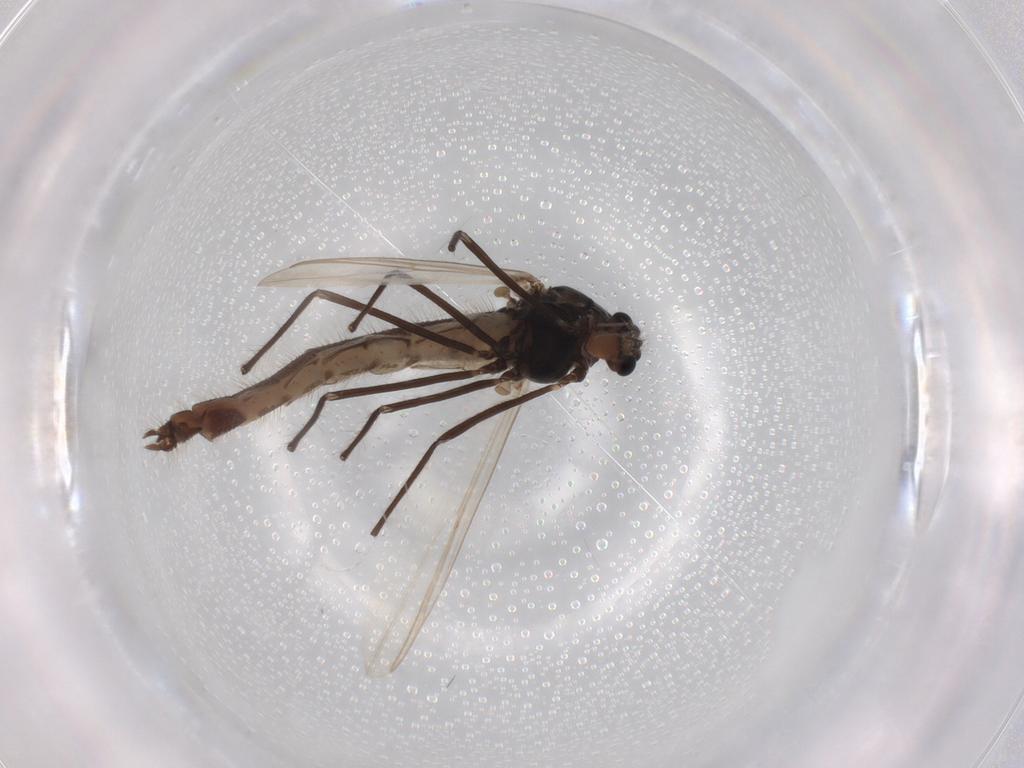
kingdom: Animalia
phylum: Arthropoda
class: Insecta
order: Diptera
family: Chironomidae
